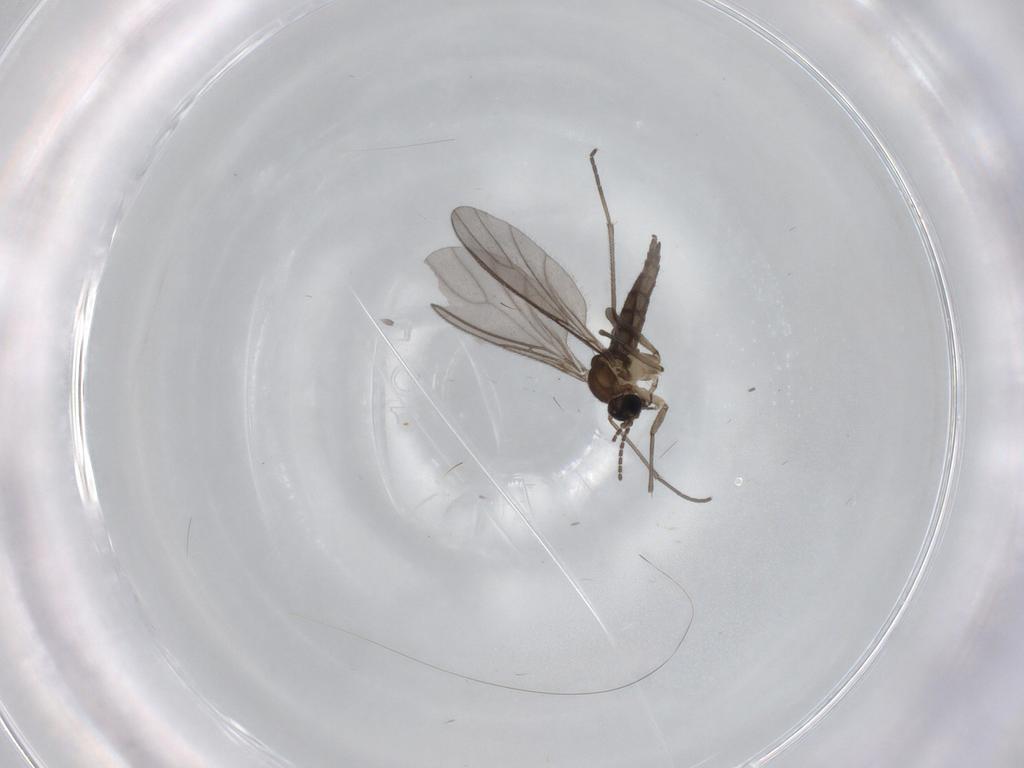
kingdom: Animalia
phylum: Arthropoda
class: Insecta
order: Diptera
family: Sciaridae
